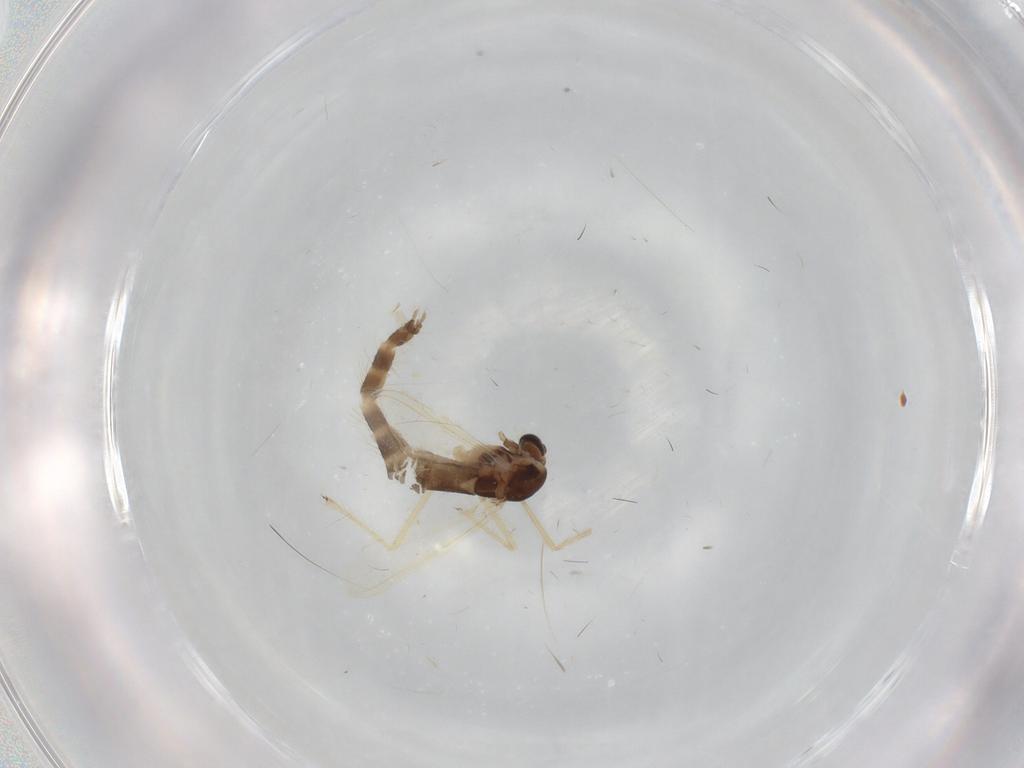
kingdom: Animalia
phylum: Arthropoda
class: Insecta
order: Diptera
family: Chironomidae
